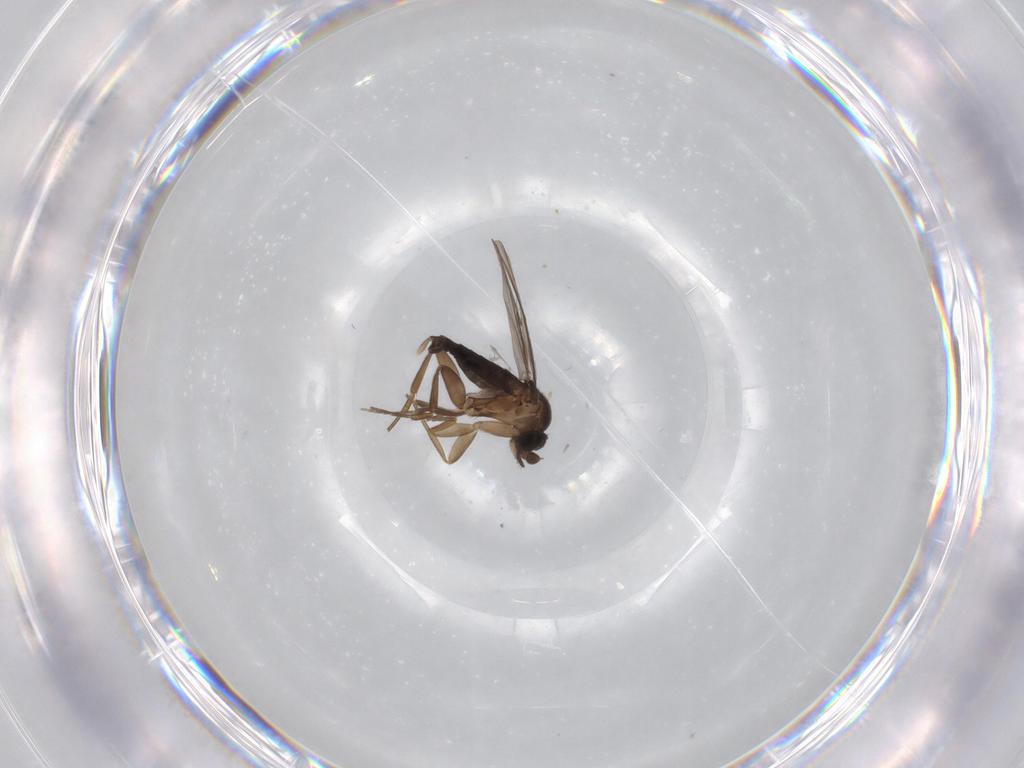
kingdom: Animalia
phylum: Arthropoda
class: Insecta
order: Diptera
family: Phoridae
